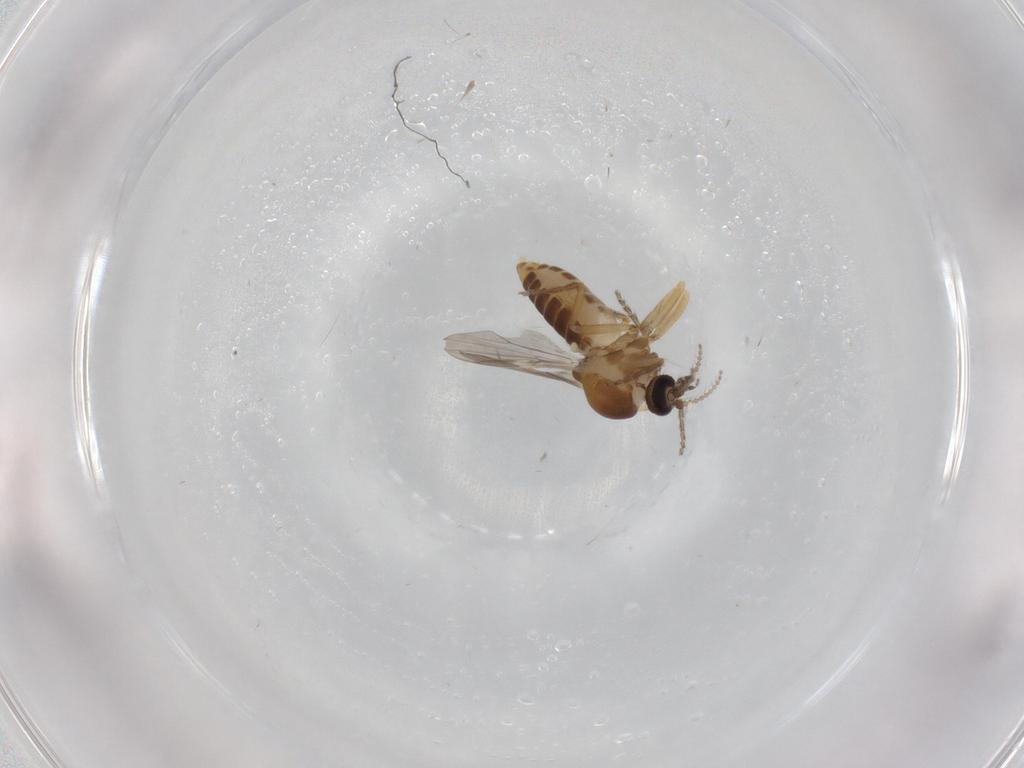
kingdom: Animalia
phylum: Arthropoda
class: Insecta
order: Diptera
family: Ceratopogonidae
